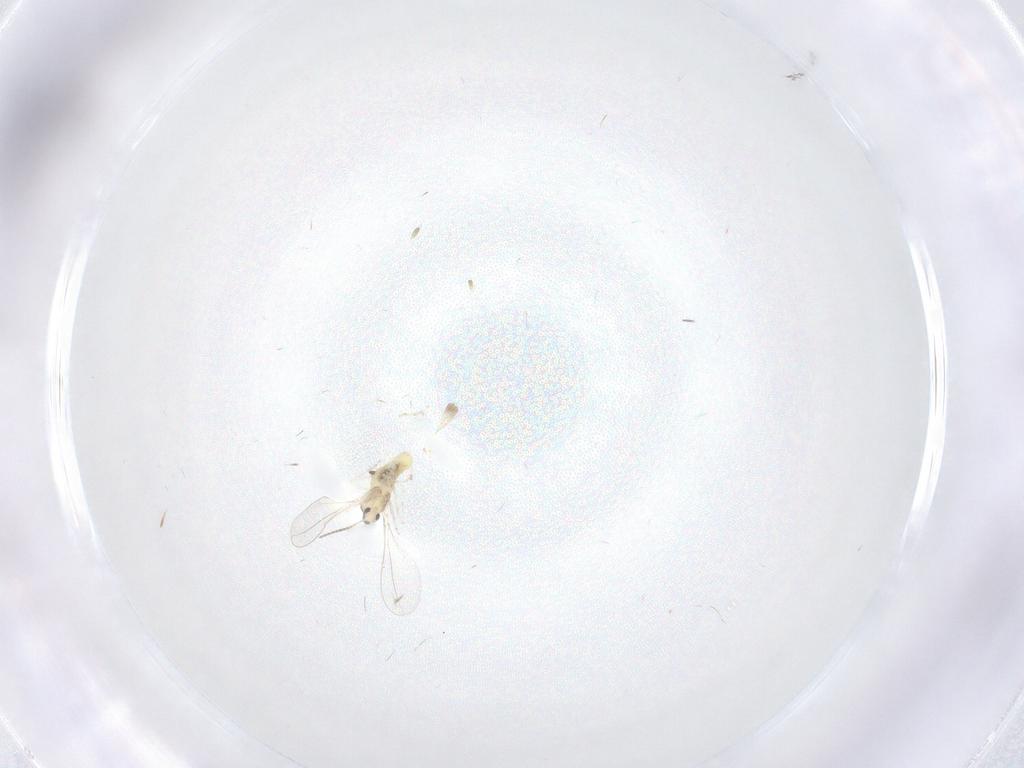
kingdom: Animalia
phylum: Arthropoda
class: Insecta
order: Diptera
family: Cecidomyiidae
